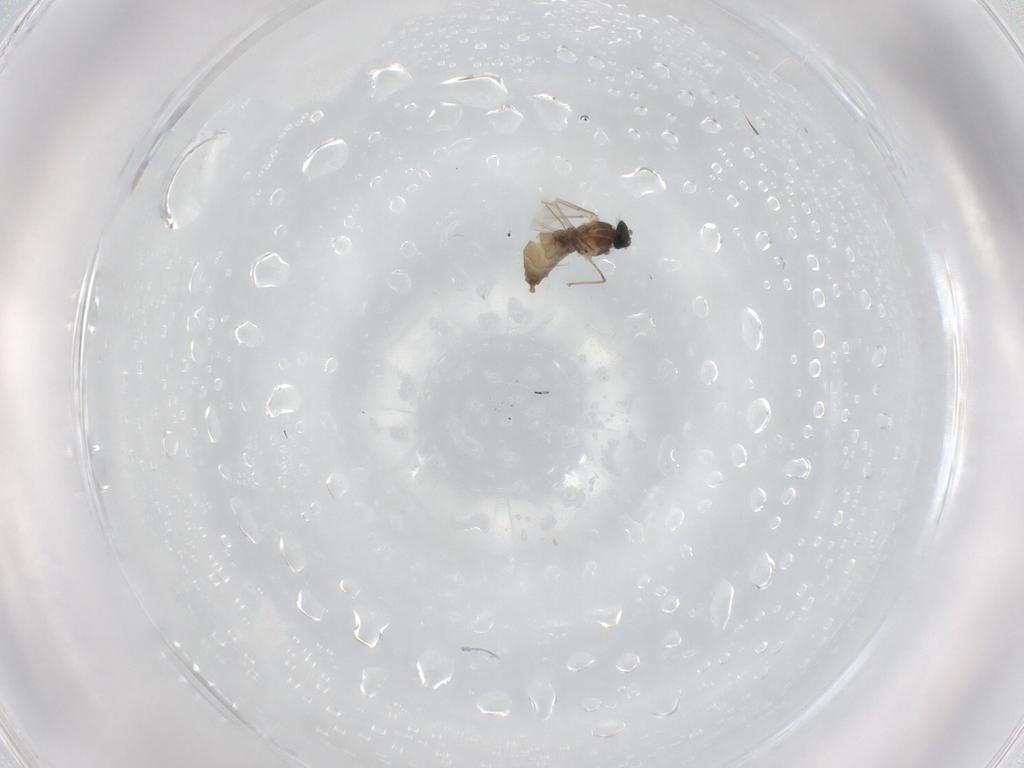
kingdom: Animalia
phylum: Arthropoda
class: Insecta
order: Diptera
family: Cecidomyiidae
